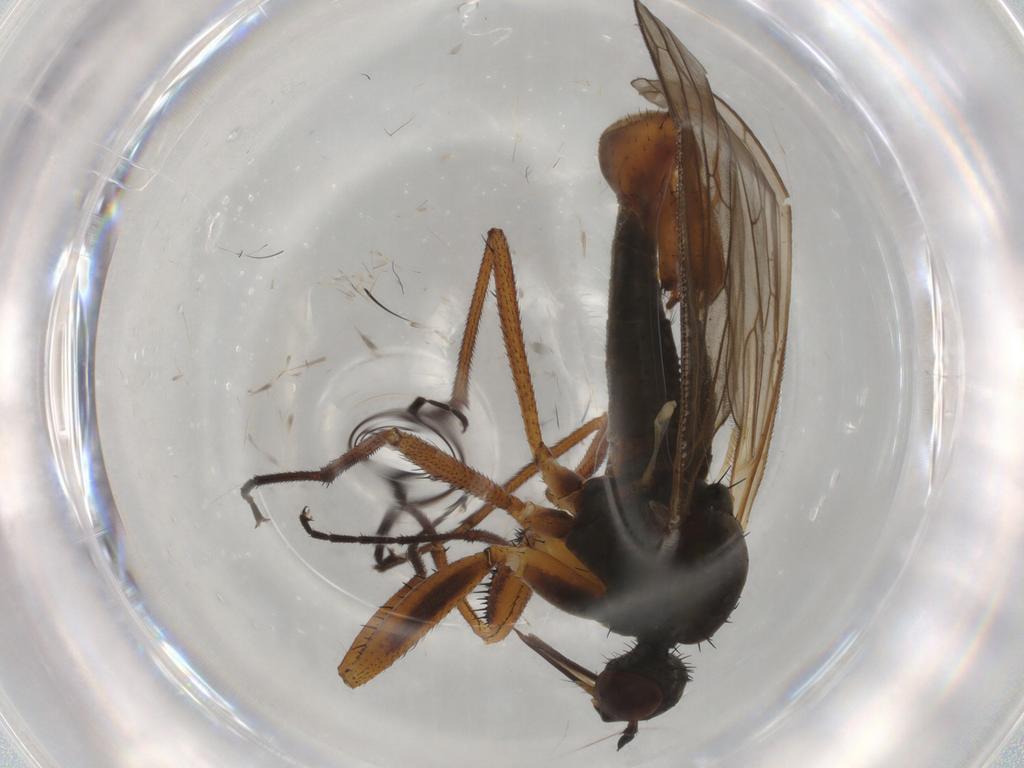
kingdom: Animalia
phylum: Arthropoda
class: Insecta
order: Diptera
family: Empididae
